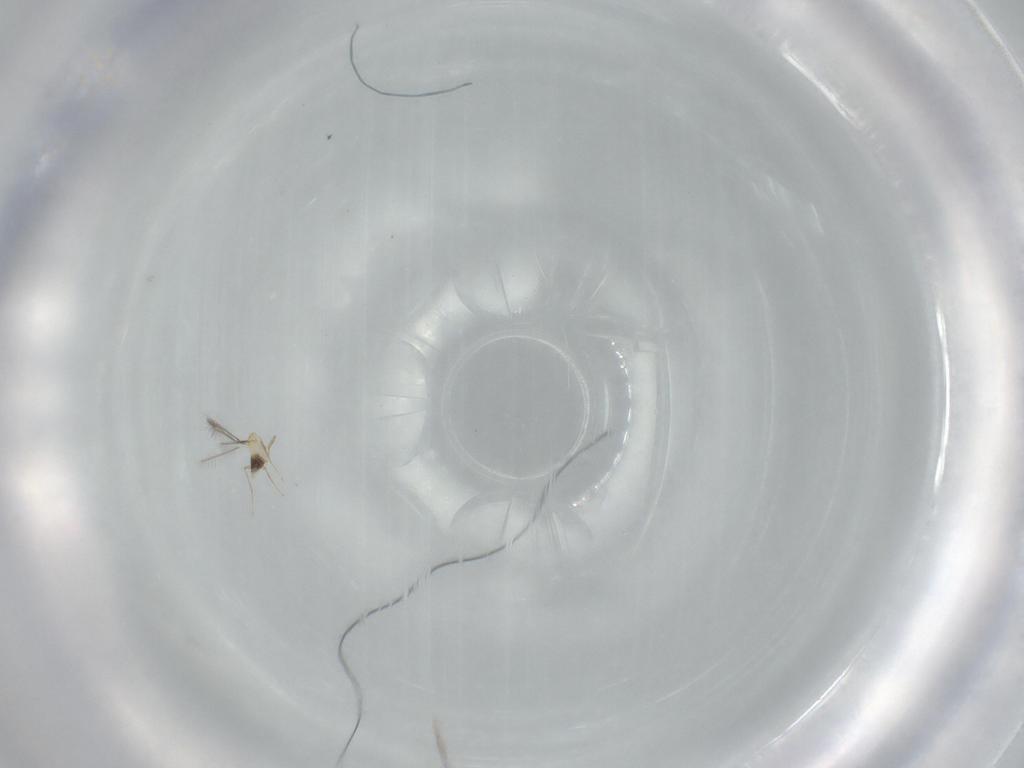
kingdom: Animalia
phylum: Arthropoda
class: Insecta
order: Hymenoptera
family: Mymaridae
